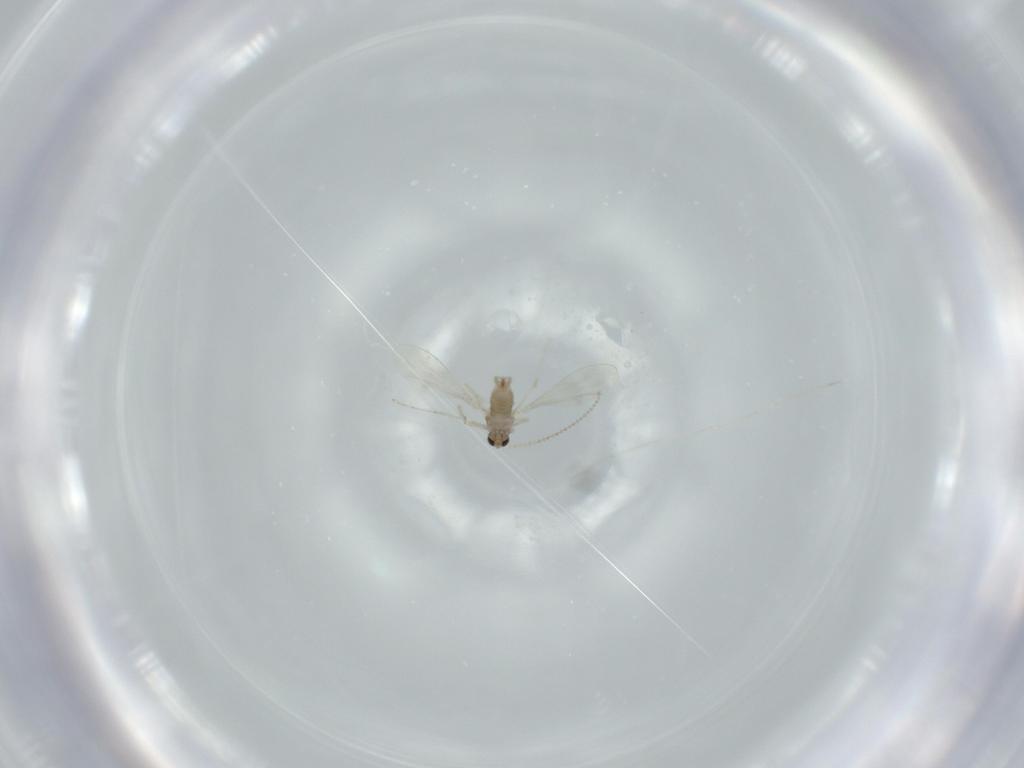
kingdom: Animalia
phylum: Arthropoda
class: Insecta
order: Diptera
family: Cecidomyiidae
